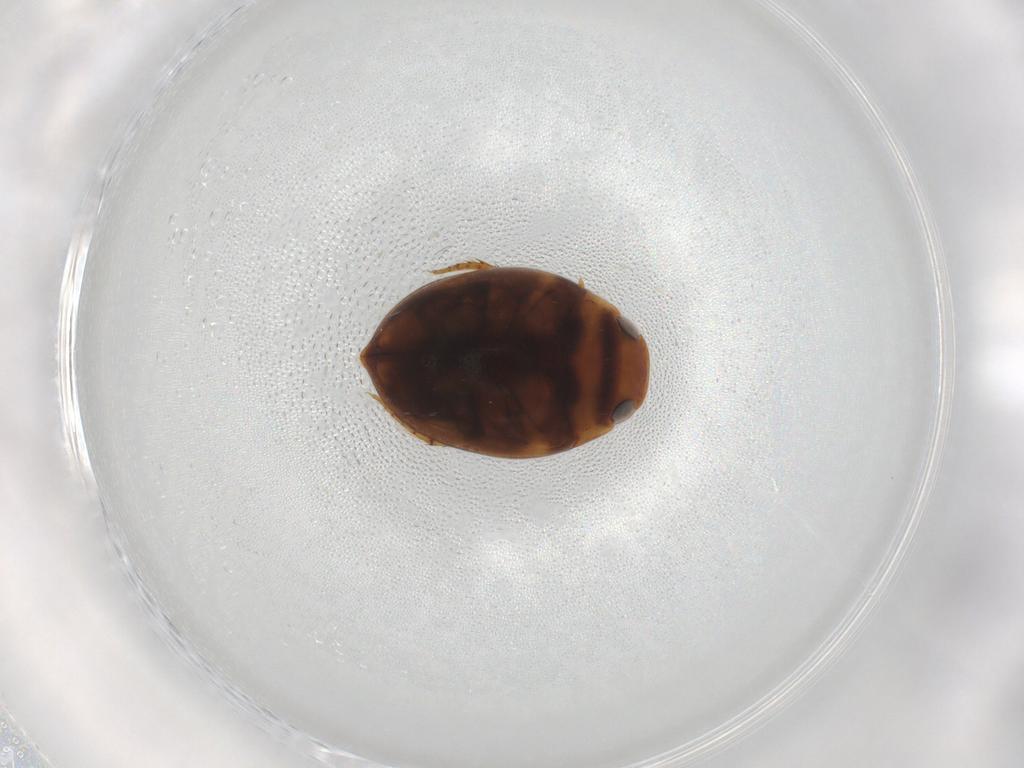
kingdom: Animalia
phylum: Arthropoda
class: Insecta
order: Coleoptera
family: Dytiscidae
